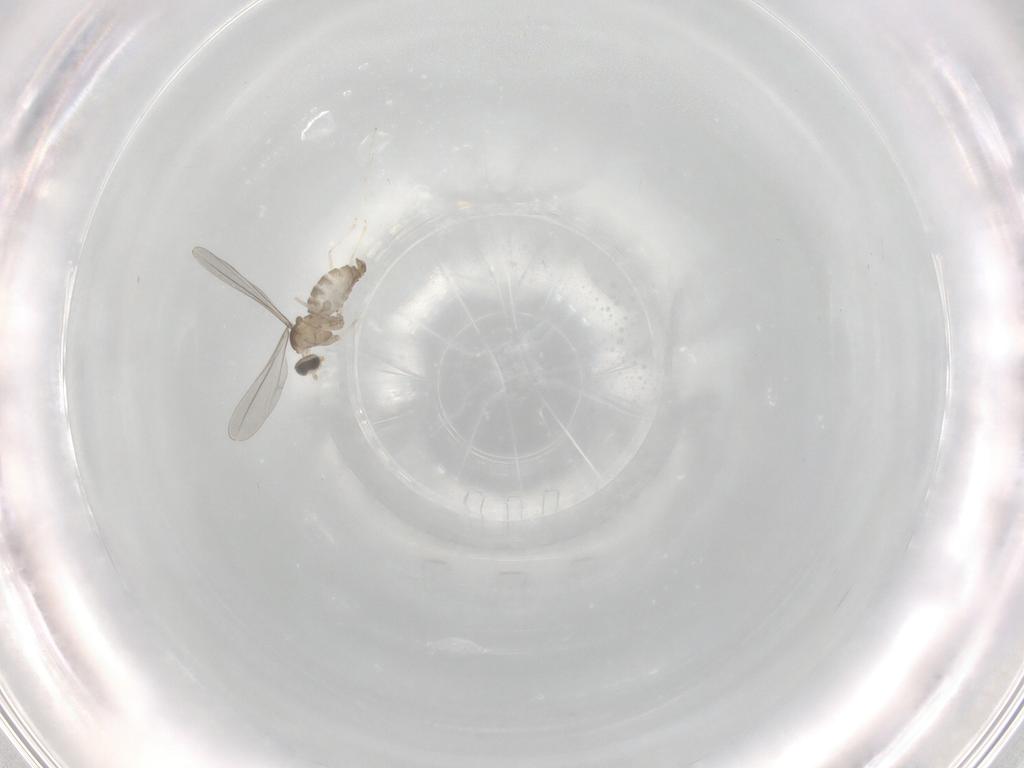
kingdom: Animalia
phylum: Arthropoda
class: Insecta
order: Diptera
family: Cecidomyiidae
